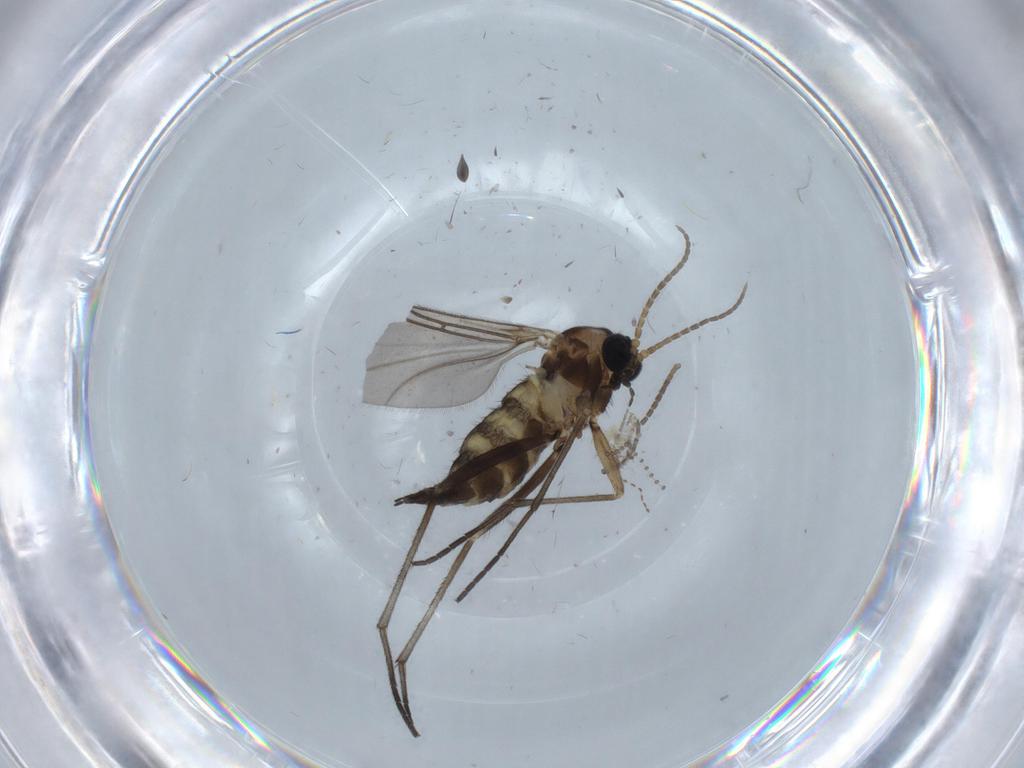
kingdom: Animalia
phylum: Arthropoda
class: Insecta
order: Diptera
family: Sciaridae
